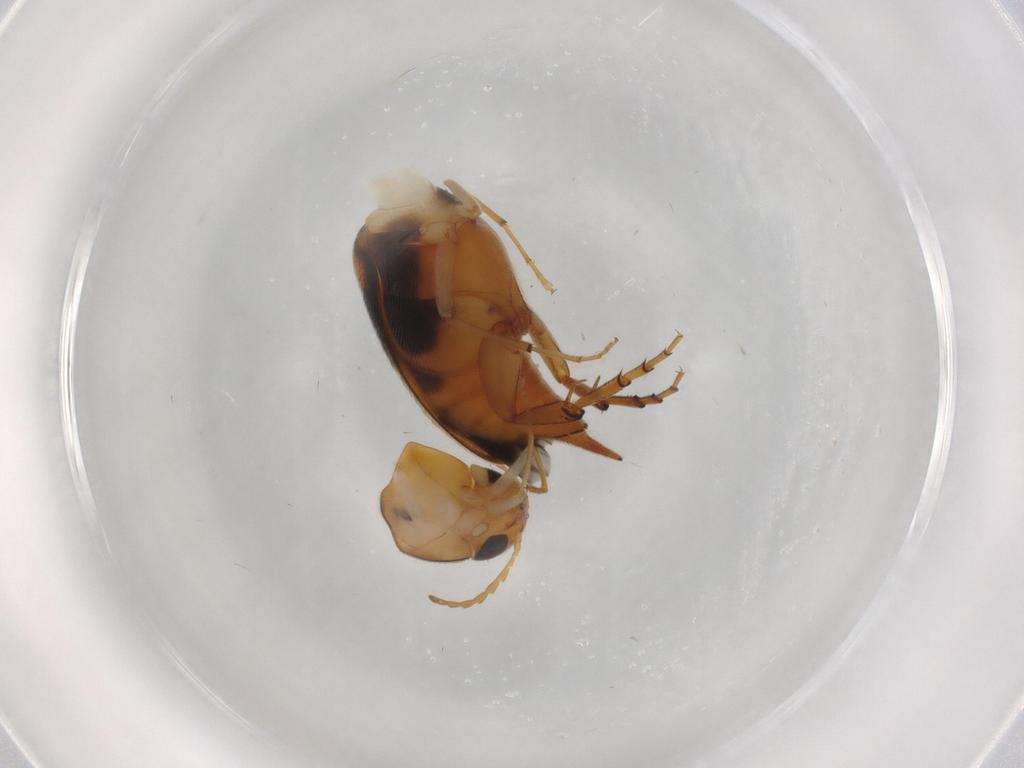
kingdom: Animalia
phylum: Arthropoda
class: Insecta
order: Coleoptera
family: Mordellidae
